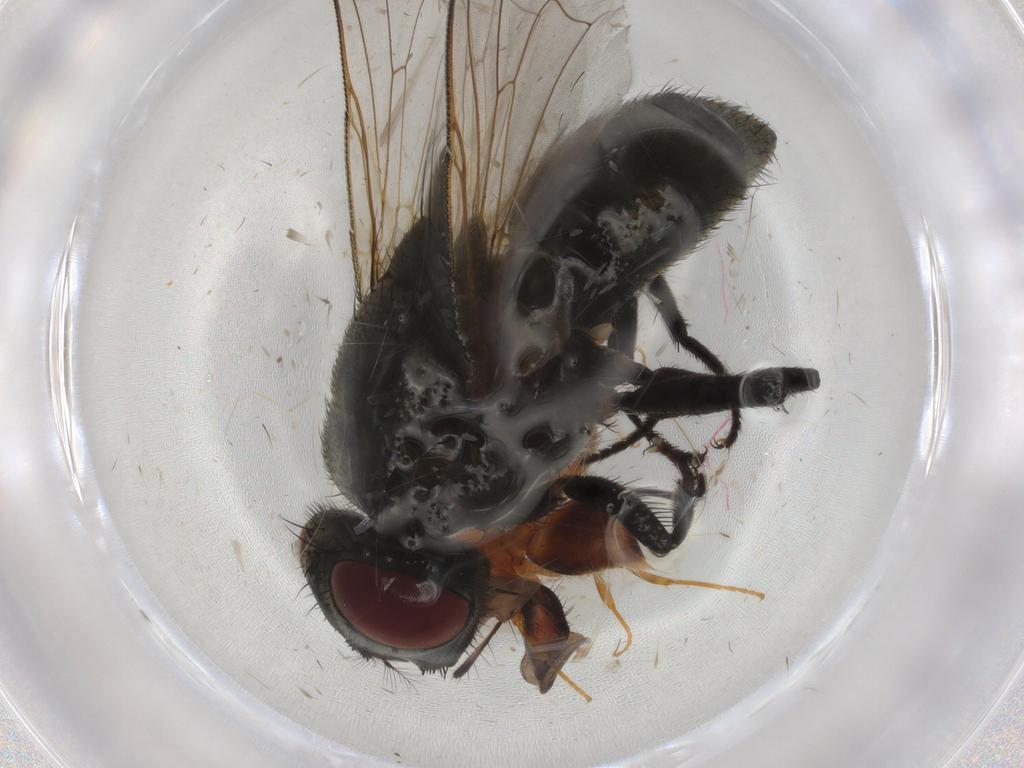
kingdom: Animalia
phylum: Arthropoda
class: Insecta
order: Diptera
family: Muscidae
